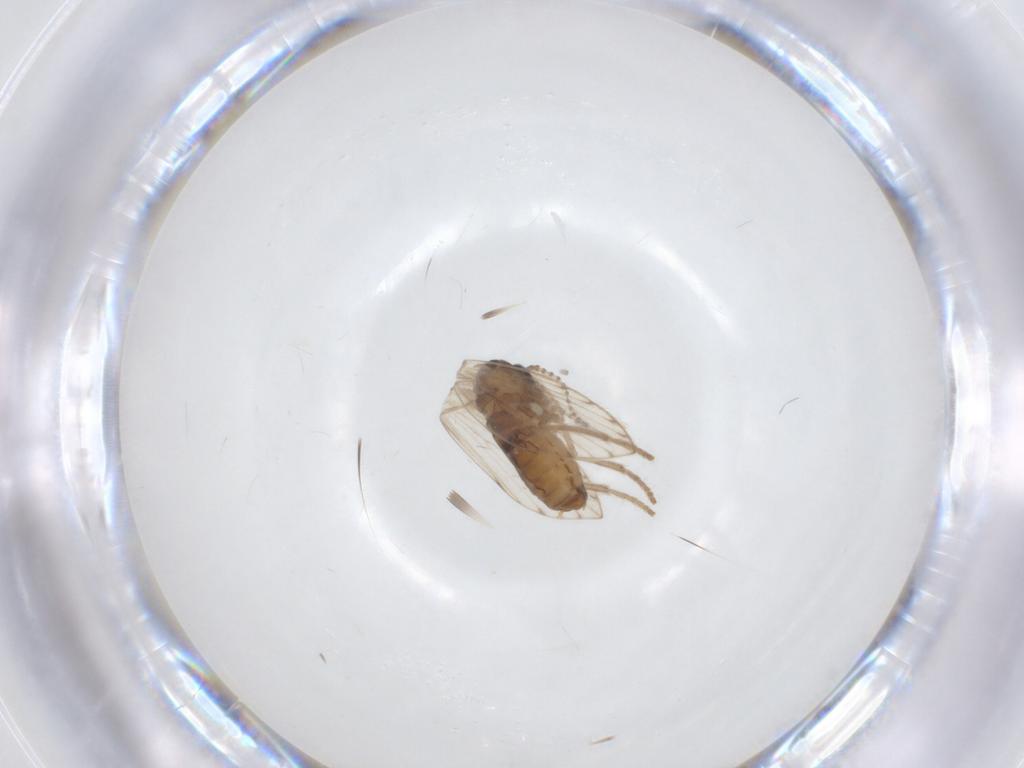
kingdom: Animalia
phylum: Arthropoda
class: Insecta
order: Diptera
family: Psychodidae
